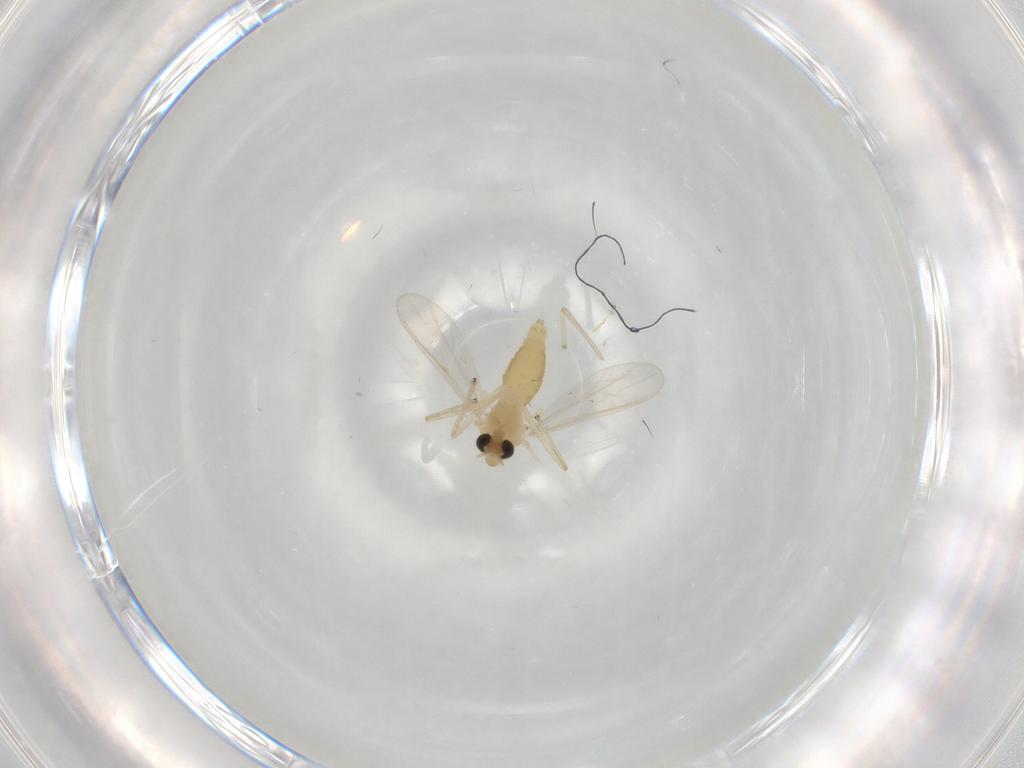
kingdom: Animalia
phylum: Arthropoda
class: Insecta
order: Diptera
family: Chironomidae
